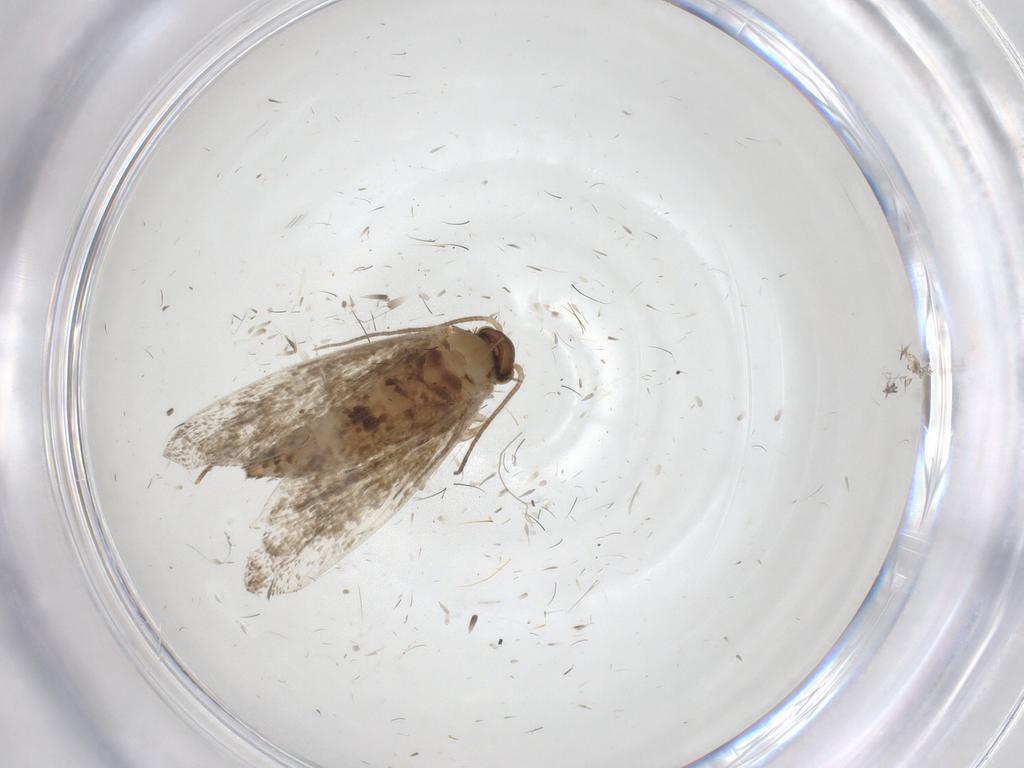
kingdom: Animalia
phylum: Arthropoda
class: Insecta
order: Lepidoptera
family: Crambidae
